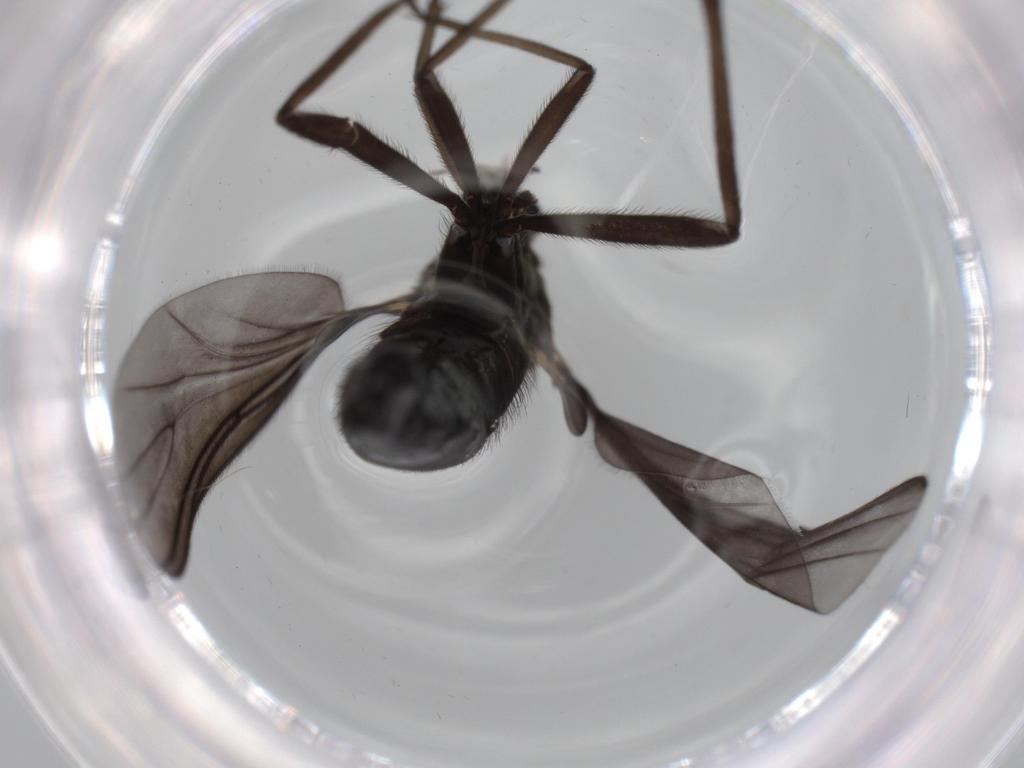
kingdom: Animalia
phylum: Arthropoda
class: Insecta
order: Diptera
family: Sciaridae
